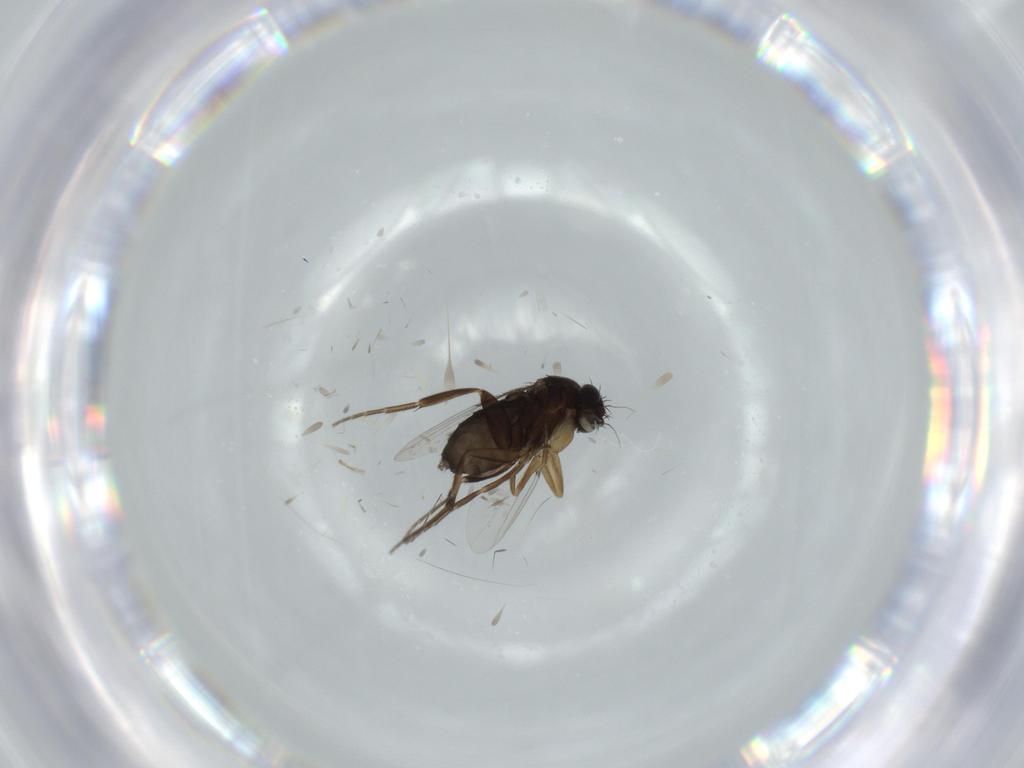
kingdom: Animalia
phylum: Arthropoda
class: Insecta
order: Diptera
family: Phoridae
